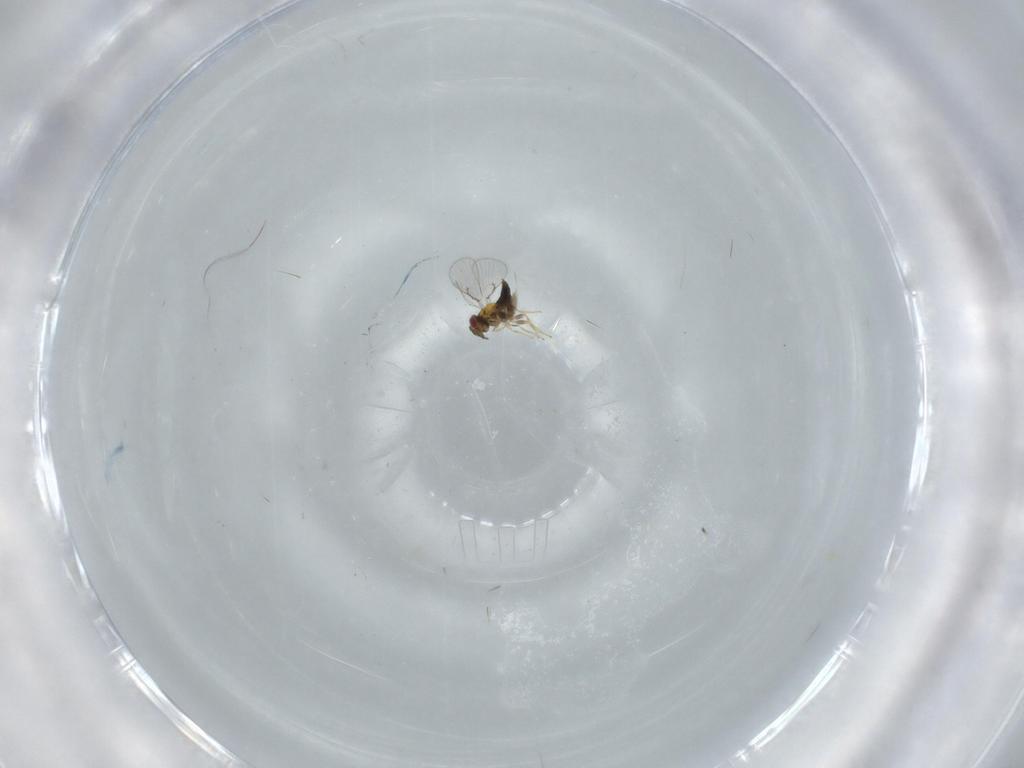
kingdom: Animalia
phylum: Arthropoda
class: Insecta
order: Hymenoptera
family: Trichogrammatidae
